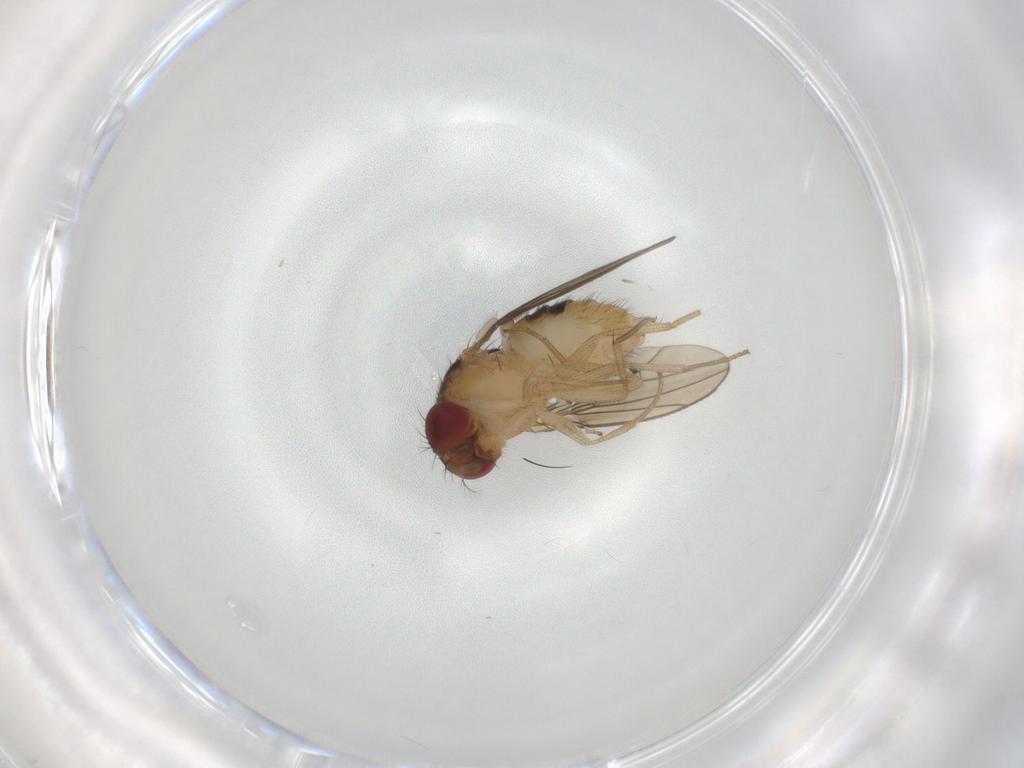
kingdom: Animalia
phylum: Arthropoda
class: Insecta
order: Diptera
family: Drosophilidae
